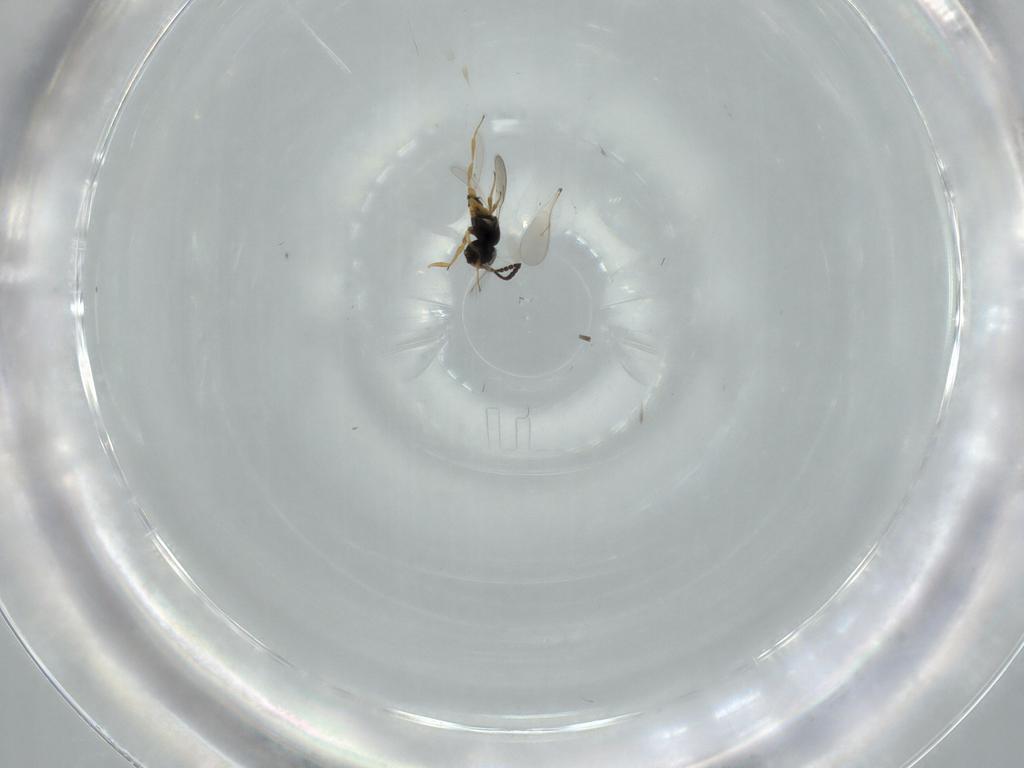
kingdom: Animalia
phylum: Arthropoda
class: Insecta
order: Hymenoptera
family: Scelionidae
